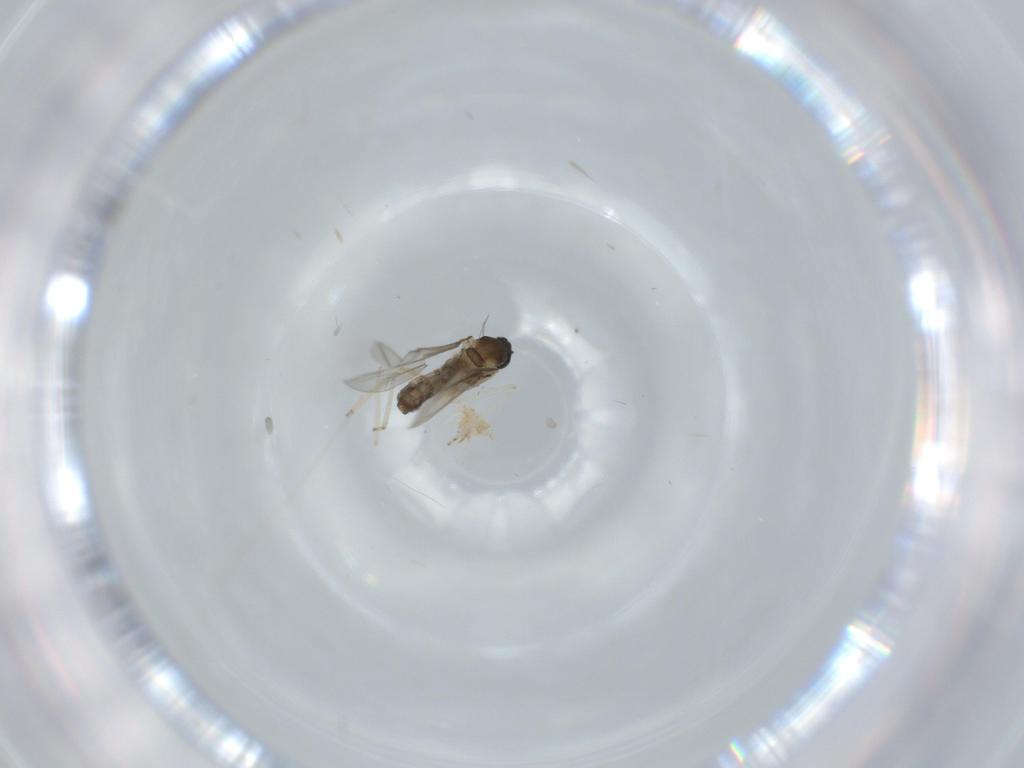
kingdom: Animalia
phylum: Arthropoda
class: Insecta
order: Diptera
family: Cecidomyiidae
